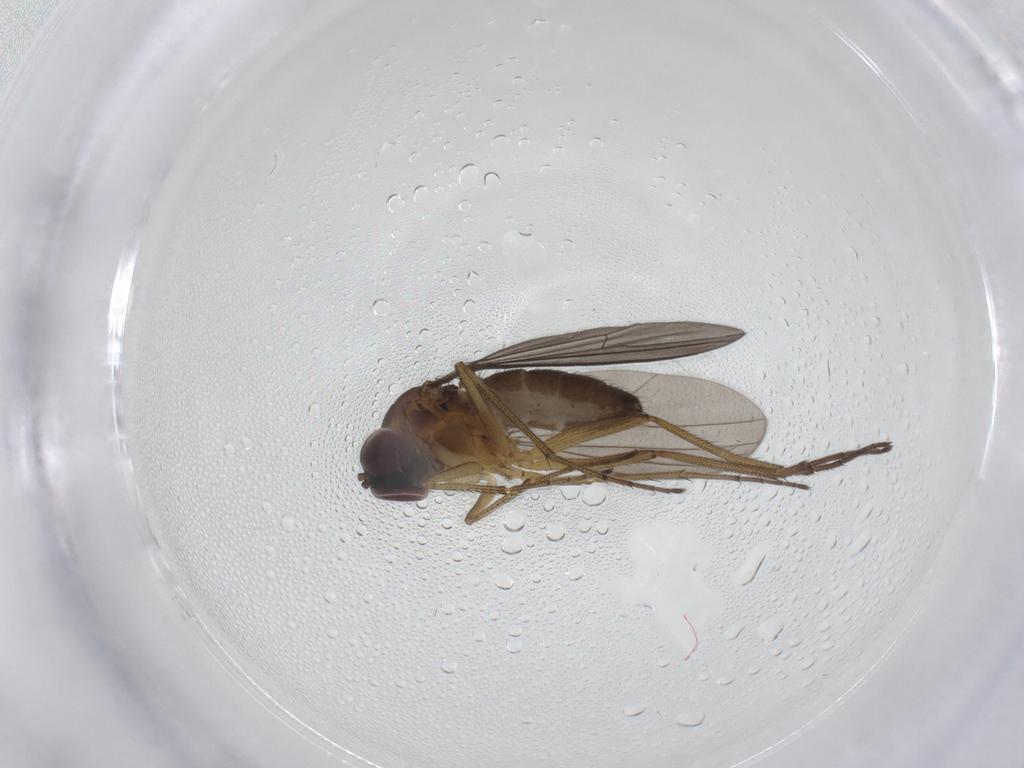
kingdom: Animalia
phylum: Arthropoda
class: Insecta
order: Diptera
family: Dolichopodidae
